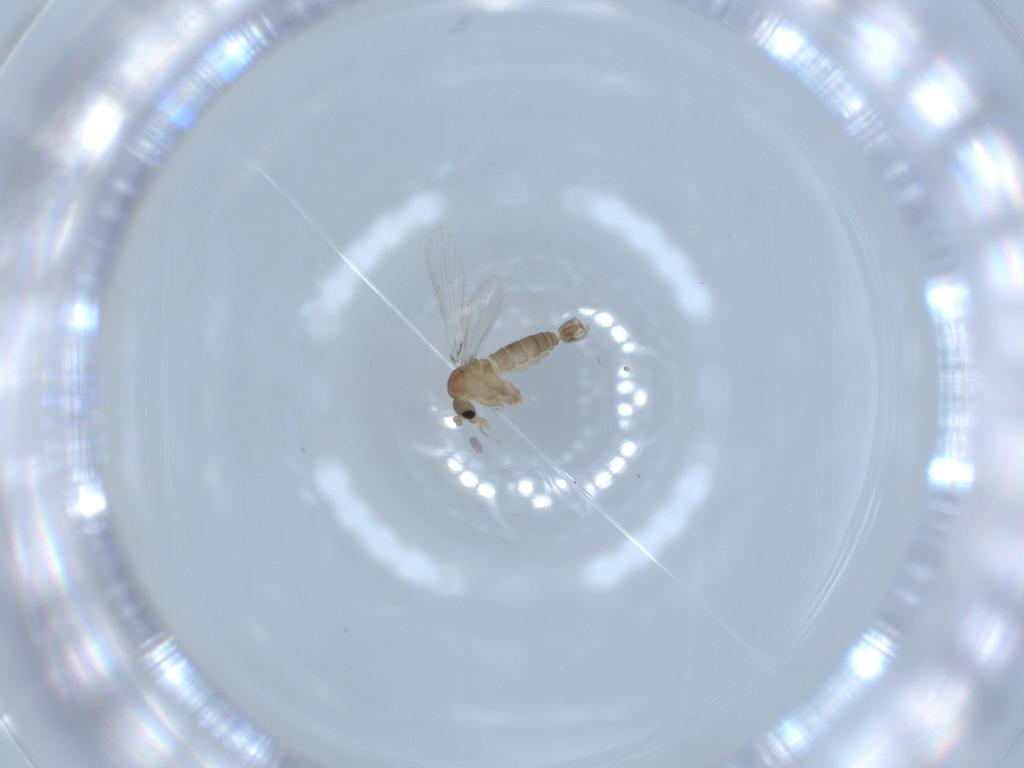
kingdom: Animalia
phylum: Arthropoda
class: Insecta
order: Diptera
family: Psychodidae
